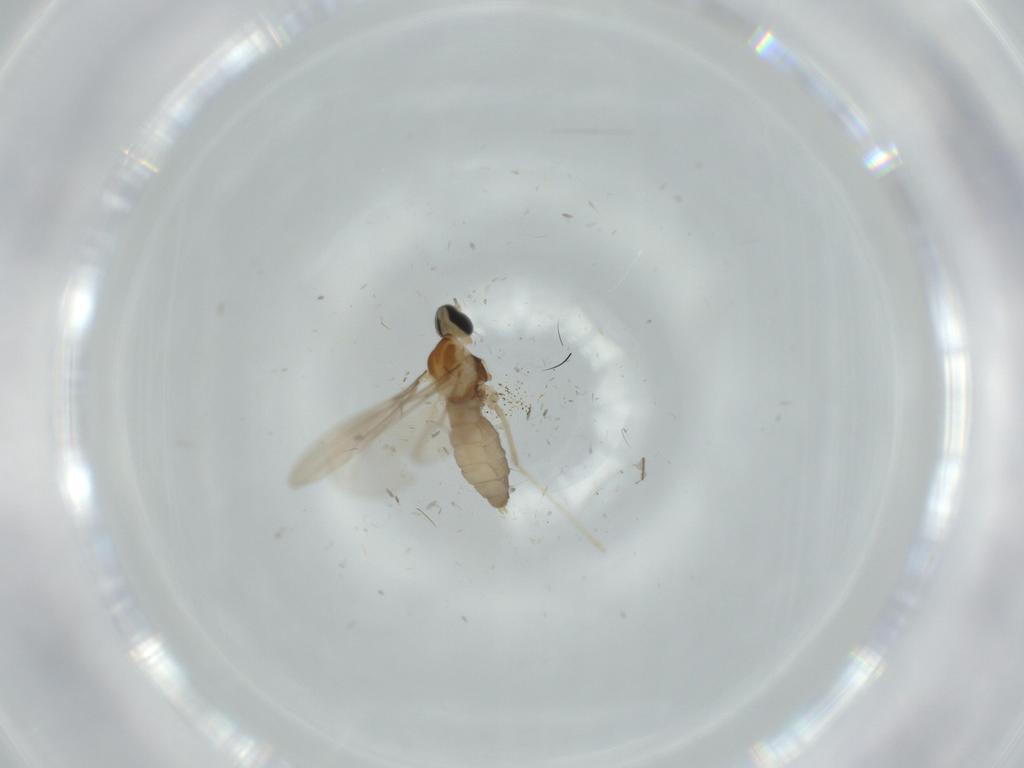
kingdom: Animalia
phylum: Arthropoda
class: Insecta
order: Diptera
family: Cecidomyiidae
